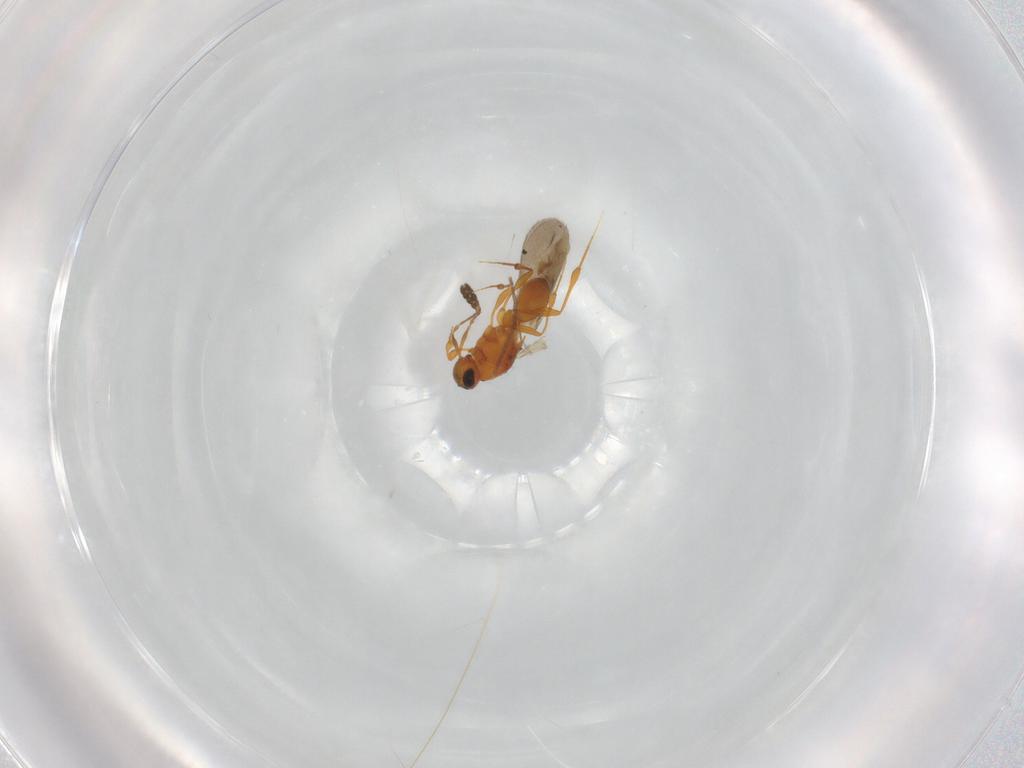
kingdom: Animalia
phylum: Arthropoda
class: Insecta
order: Hymenoptera
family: Platygastridae
